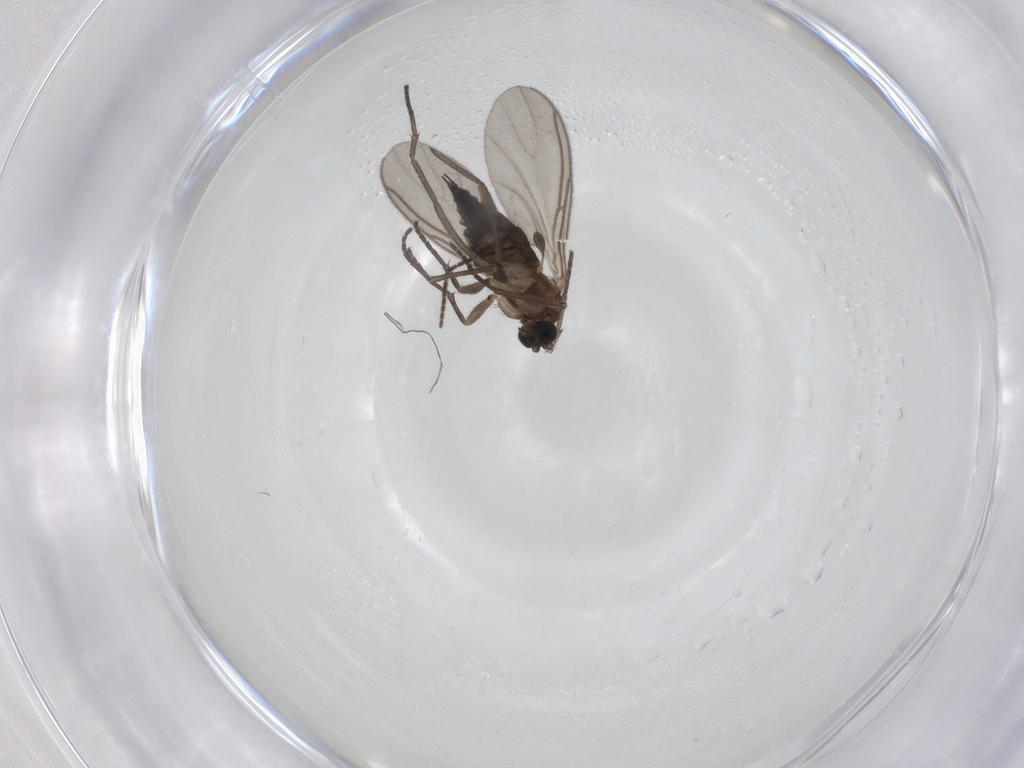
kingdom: Animalia
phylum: Arthropoda
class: Insecta
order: Diptera
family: Sciaridae
